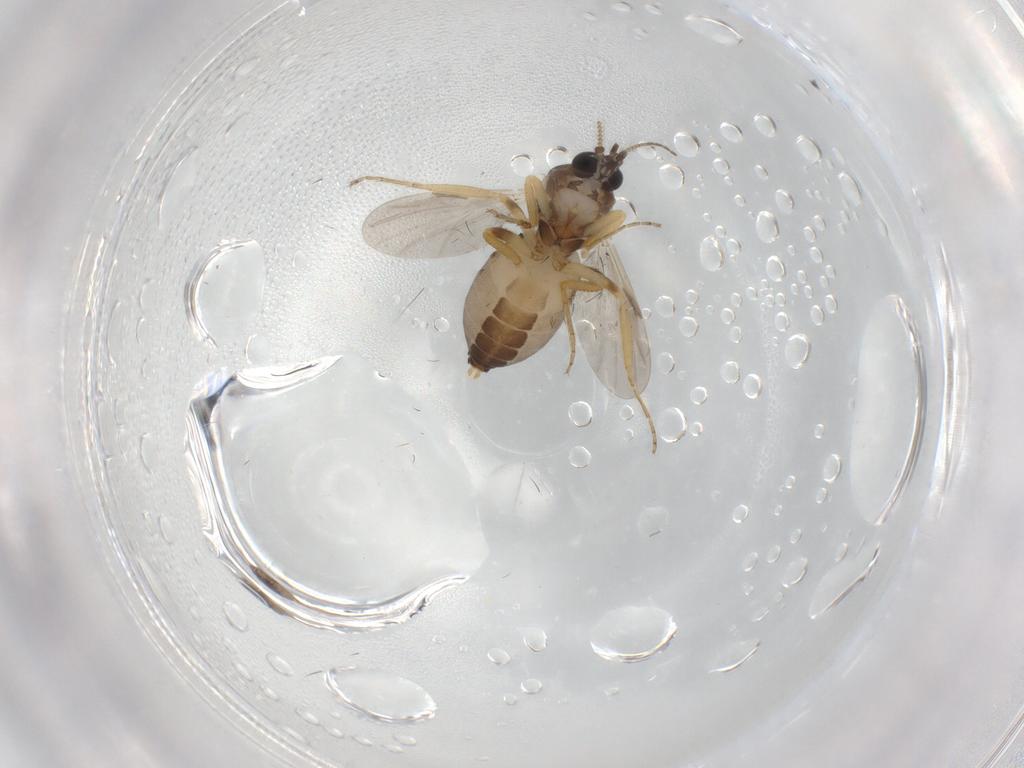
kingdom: Animalia
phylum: Arthropoda
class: Insecta
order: Diptera
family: Ceratopogonidae
